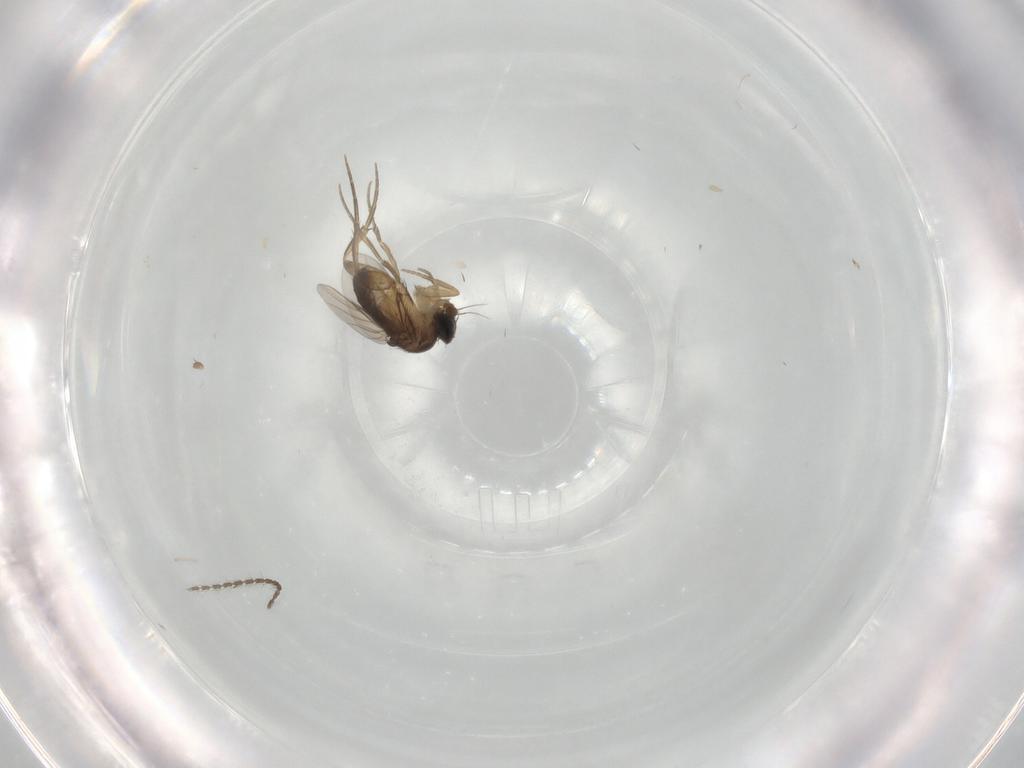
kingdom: Animalia
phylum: Arthropoda
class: Insecta
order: Diptera
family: Phoridae
